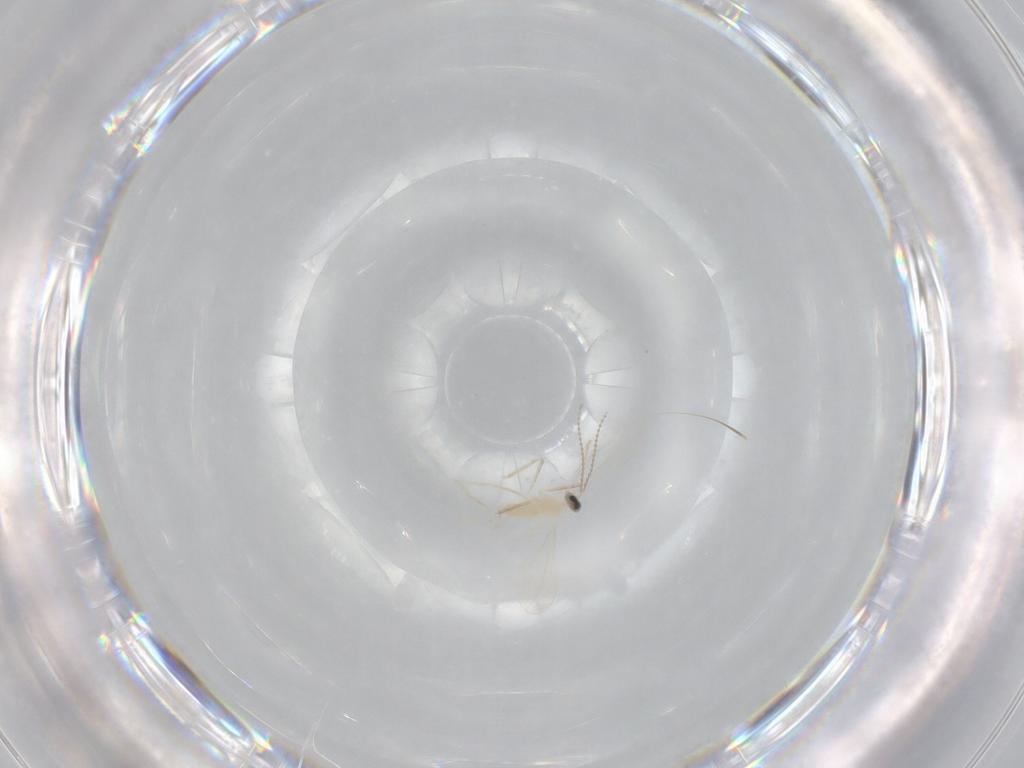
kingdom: Animalia
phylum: Arthropoda
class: Insecta
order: Diptera
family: Cecidomyiidae
